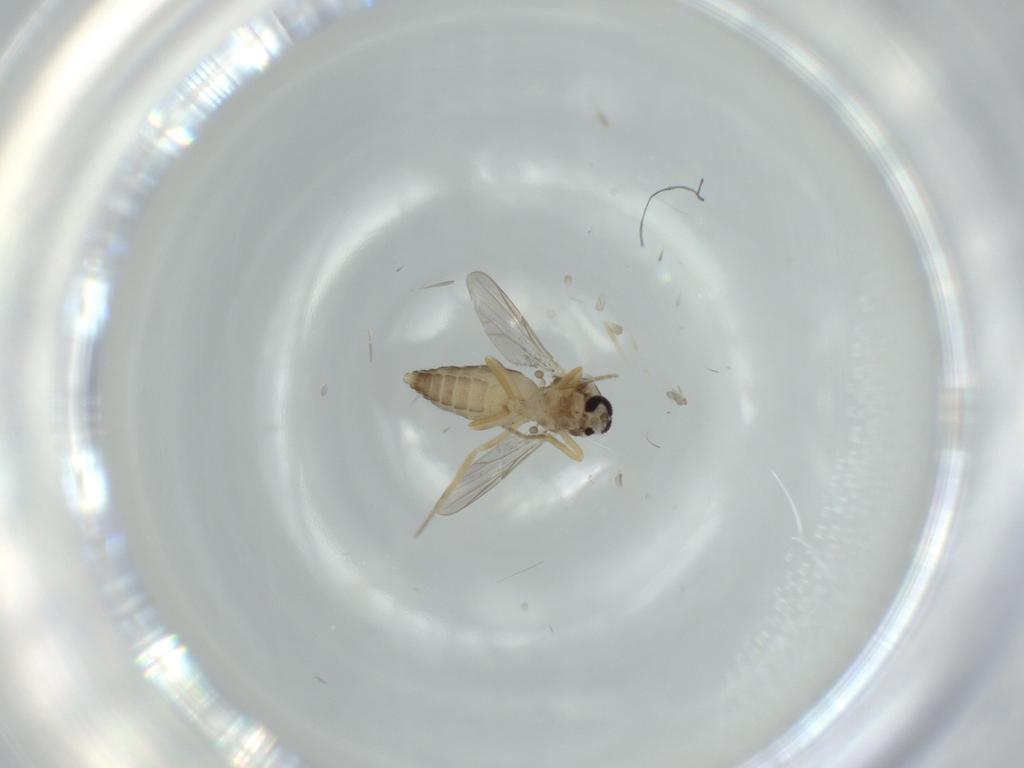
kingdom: Animalia
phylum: Arthropoda
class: Insecta
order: Diptera
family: Ceratopogonidae
